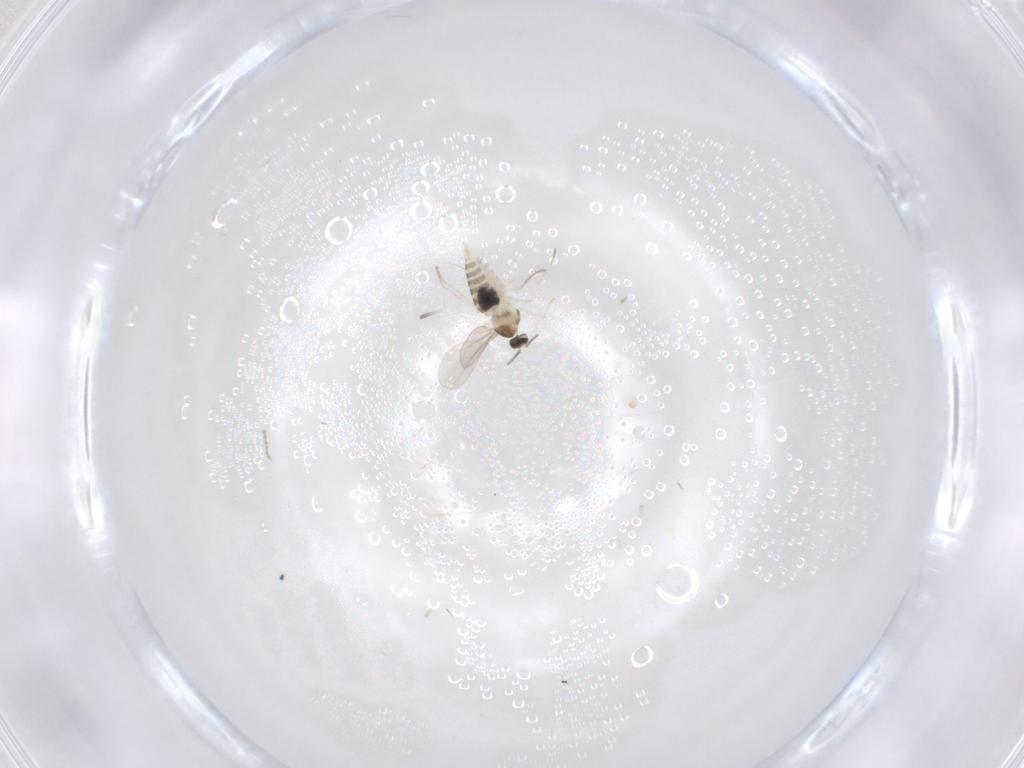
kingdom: Animalia
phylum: Arthropoda
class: Insecta
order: Diptera
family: Cecidomyiidae
